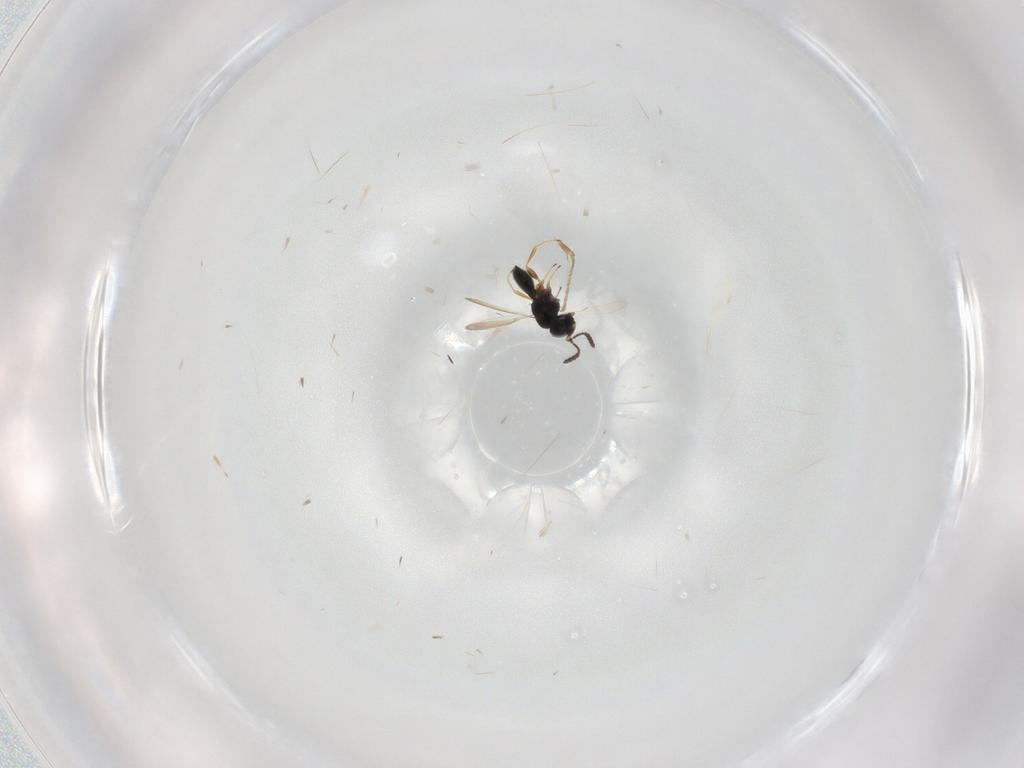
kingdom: Animalia
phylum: Arthropoda
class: Insecta
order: Hymenoptera
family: Scelionidae
